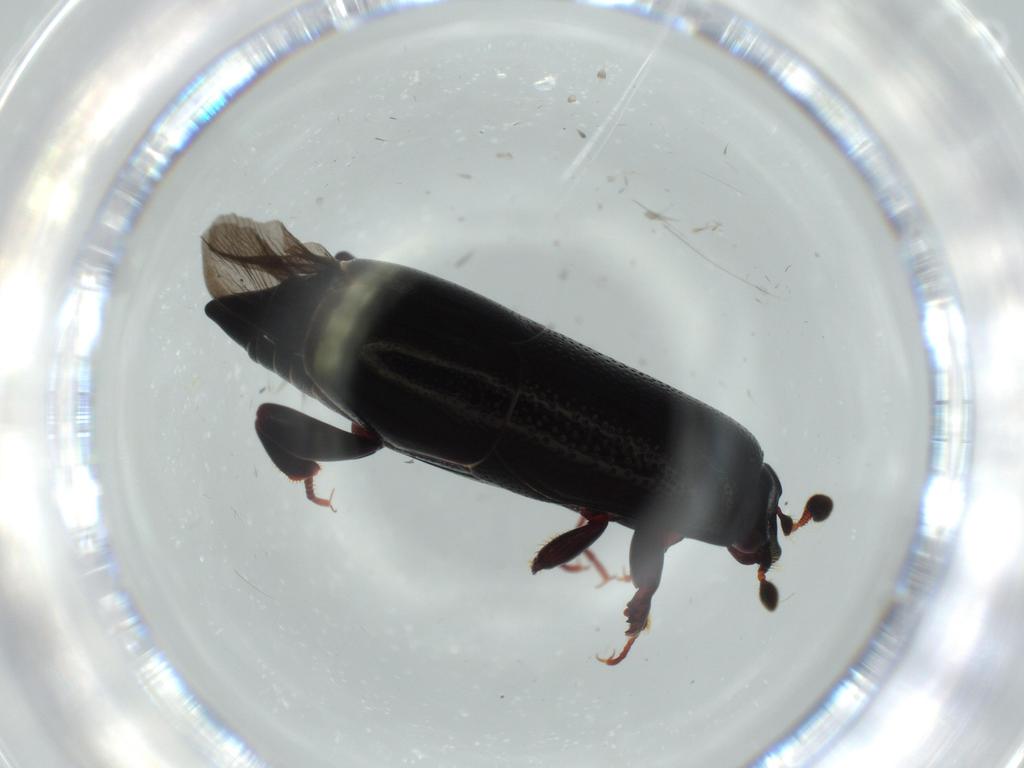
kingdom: Animalia
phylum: Arthropoda
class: Insecta
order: Coleoptera
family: Histeridae
